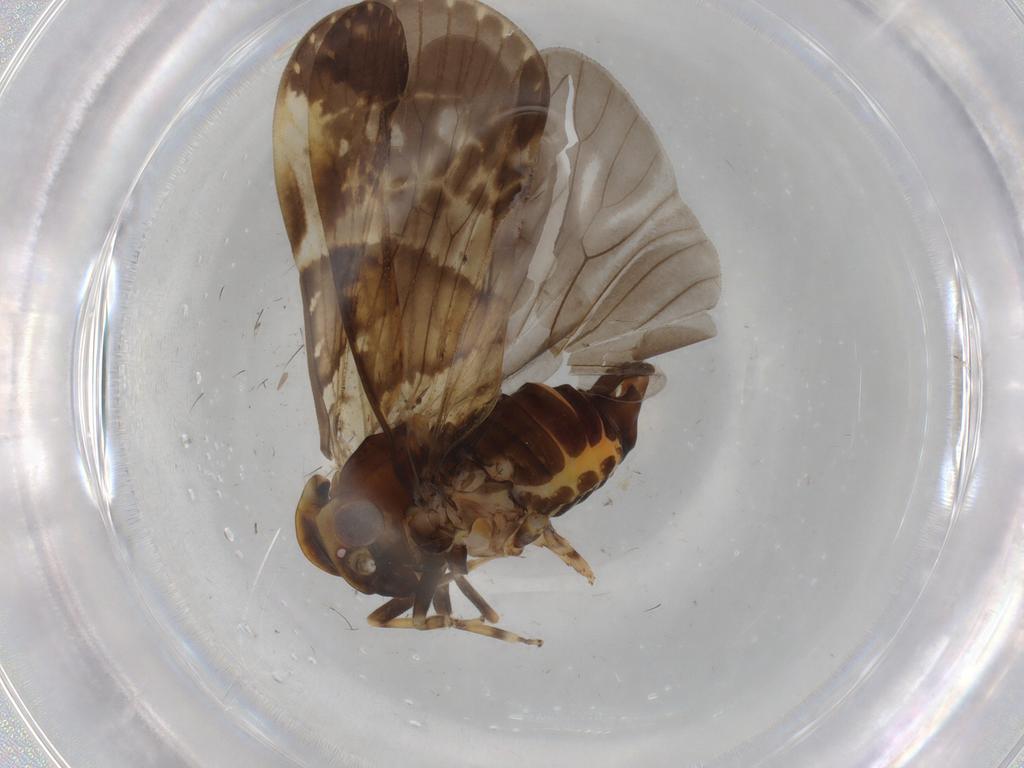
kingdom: Animalia
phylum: Arthropoda
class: Insecta
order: Hemiptera
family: Cixiidae
